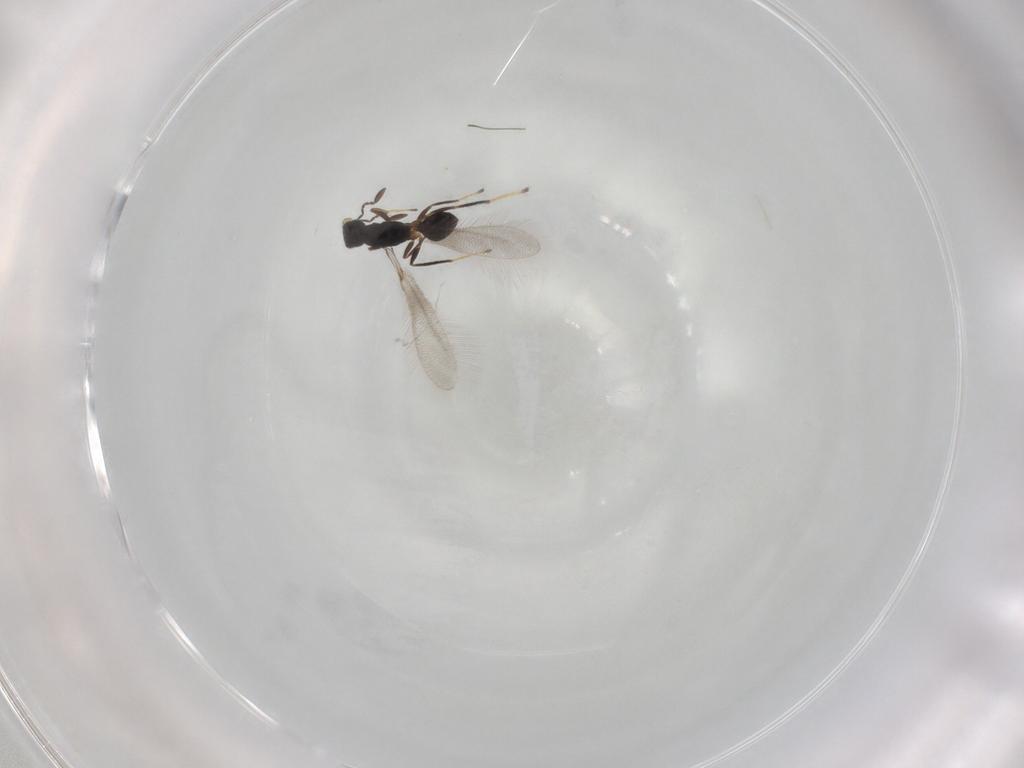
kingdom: Animalia
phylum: Arthropoda
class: Insecta
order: Hymenoptera
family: Mymaridae
